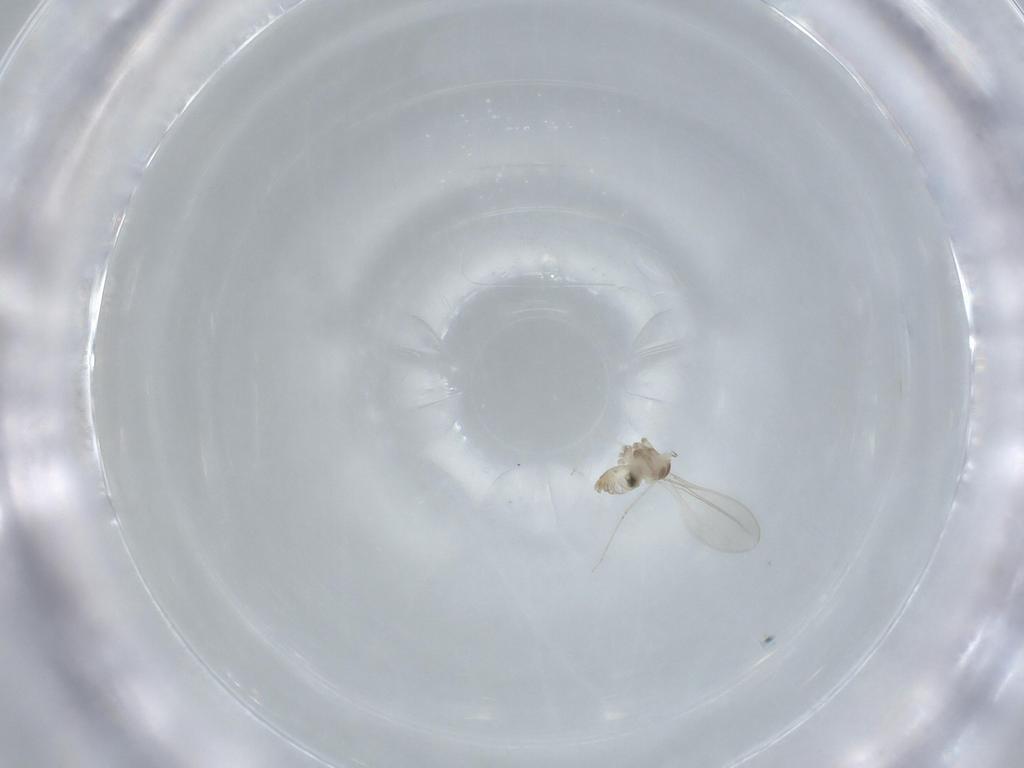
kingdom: Animalia
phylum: Arthropoda
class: Insecta
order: Diptera
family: Cecidomyiidae
